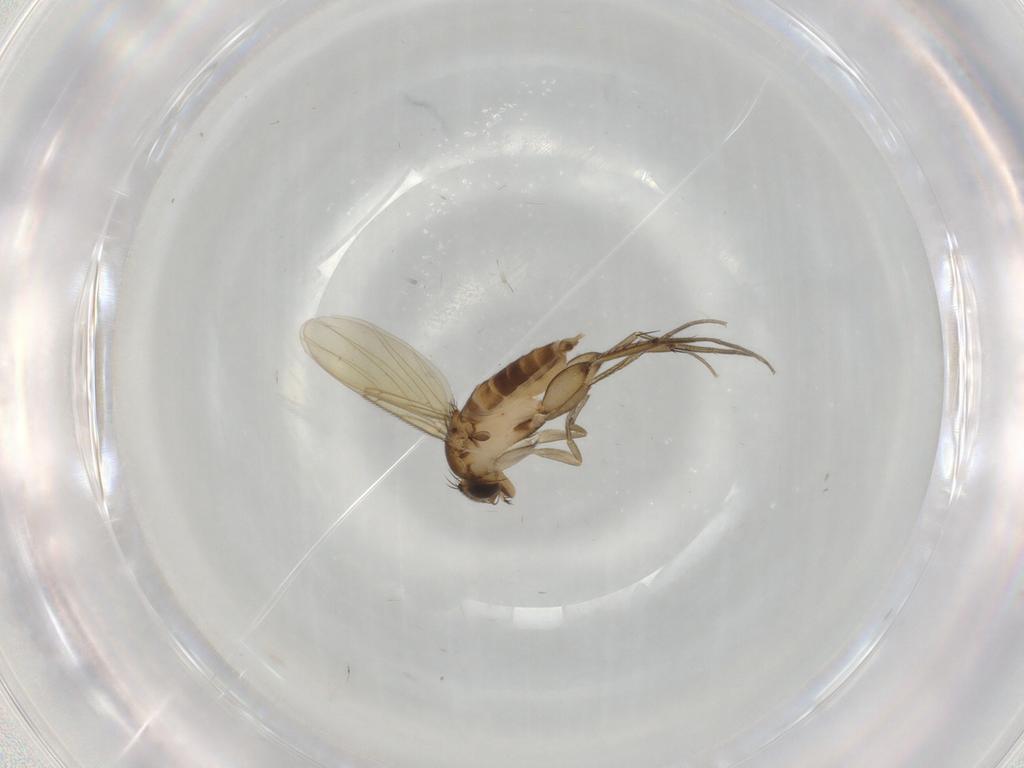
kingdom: Animalia
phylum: Arthropoda
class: Insecta
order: Diptera
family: Phoridae
